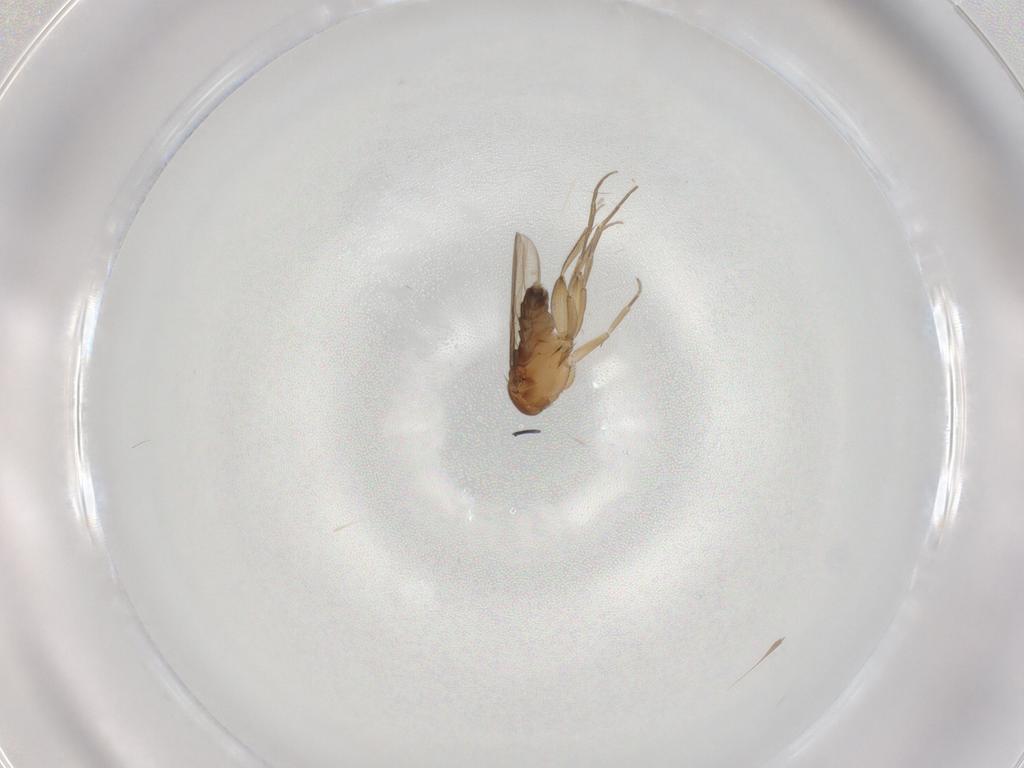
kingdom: Animalia
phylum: Arthropoda
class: Insecta
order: Diptera
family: Phoridae
